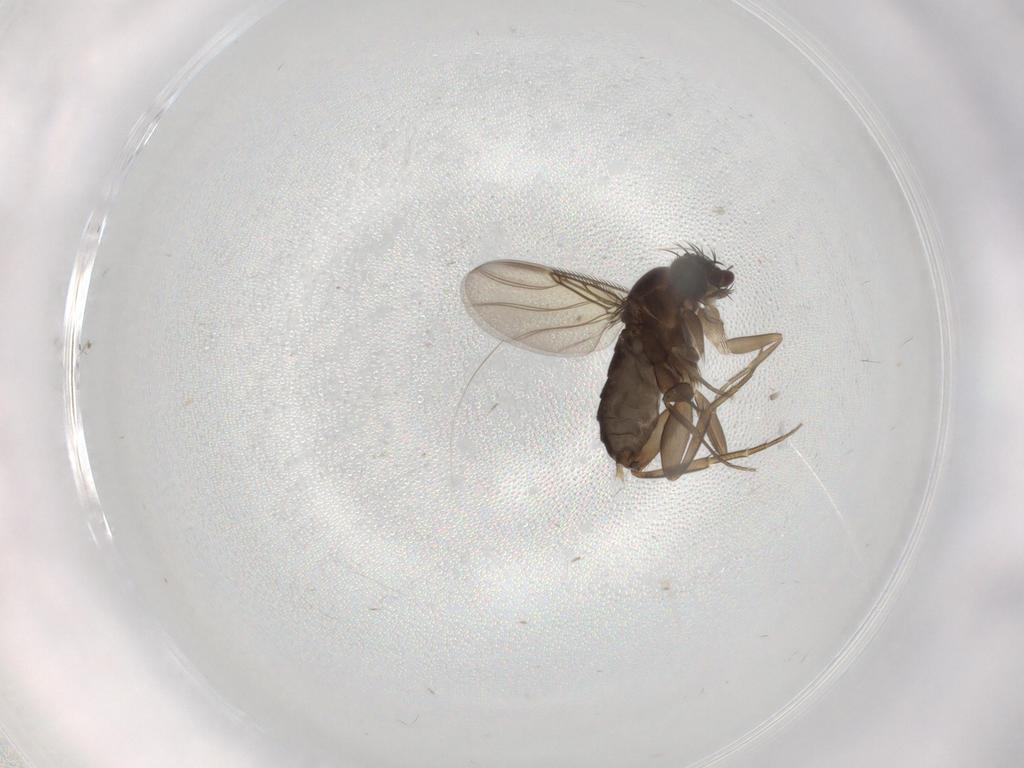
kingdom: Animalia
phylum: Arthropoda
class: Insecta
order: Diptera
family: Phoridae
